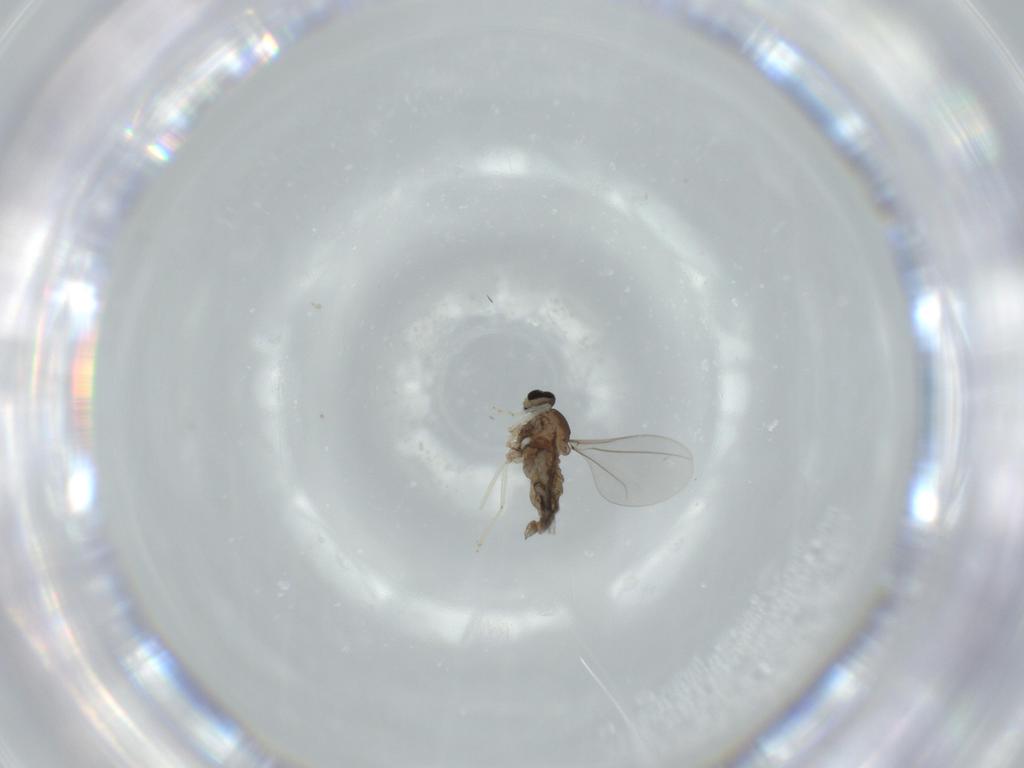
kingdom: Animalia
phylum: Arthropoda
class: Insecta
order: Diptera
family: Cecidomyiidae
